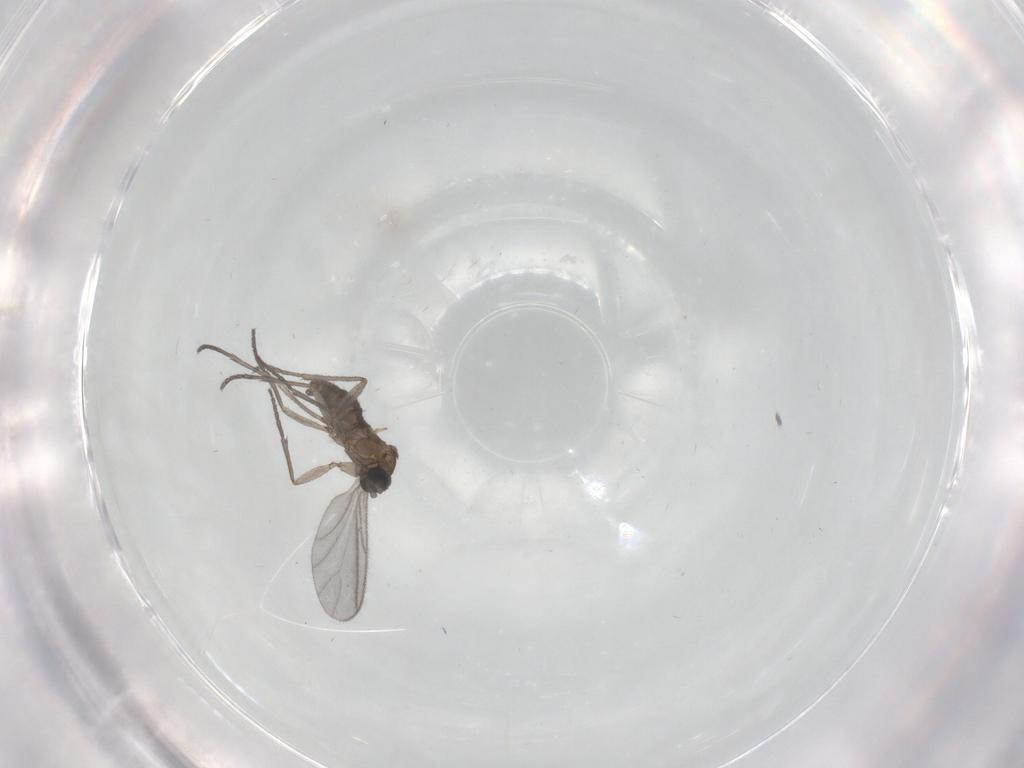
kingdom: Animalia
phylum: Arthropoda
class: Insecta
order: Diptera
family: Sciaridae
